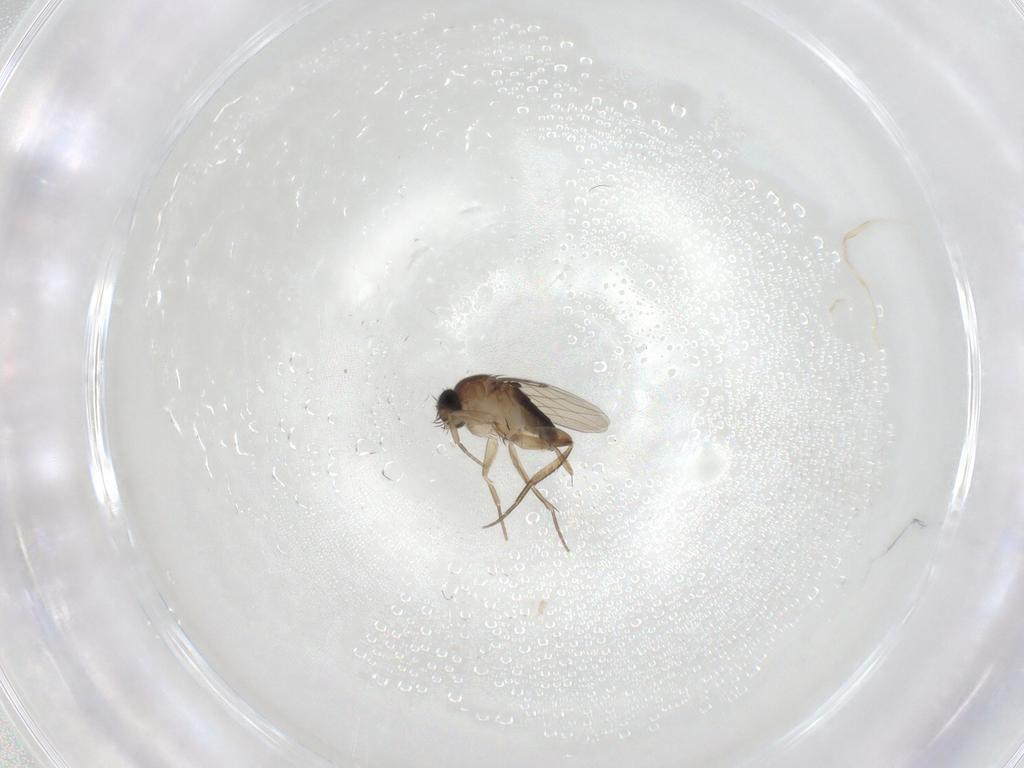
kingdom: Animalia
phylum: Arthropoda
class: Insecta
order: Diptera
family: Phoridae
